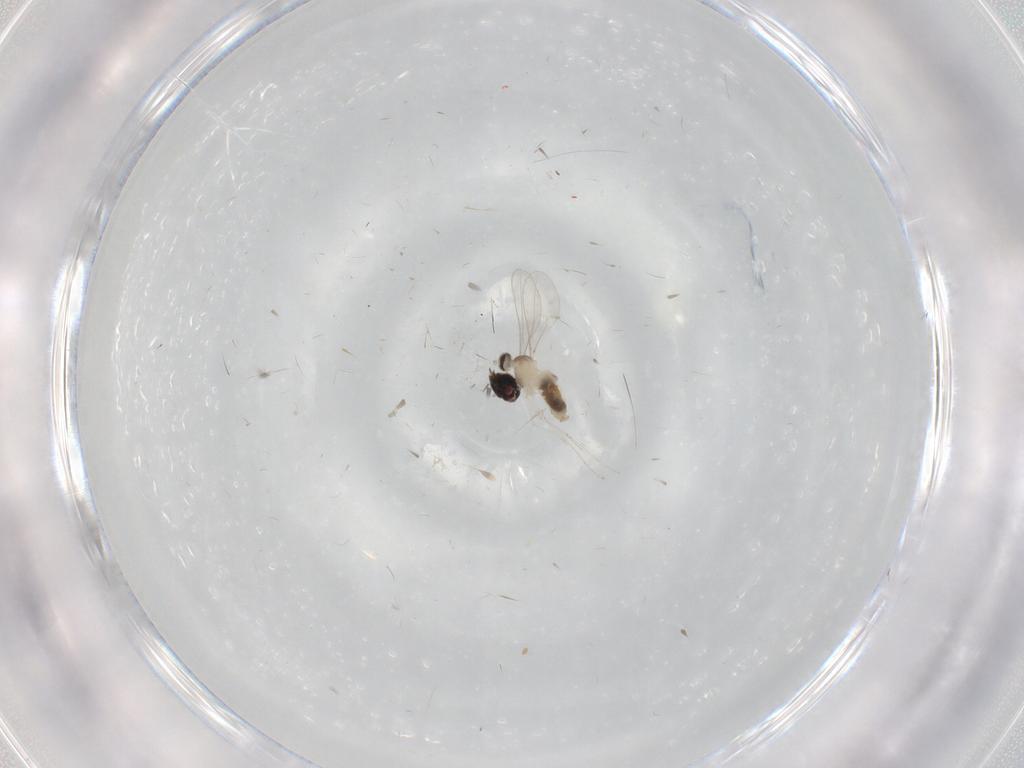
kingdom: Animalia
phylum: Arthropoda
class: Insecta
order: Diptera
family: Cecidomyiidae
